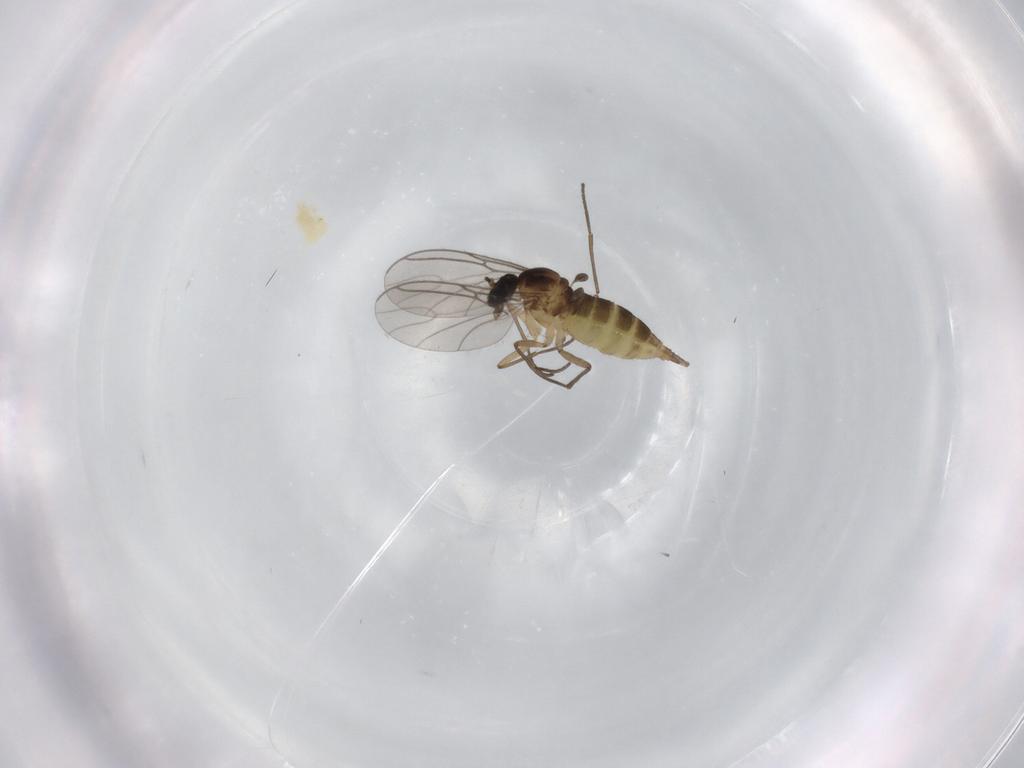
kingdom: Animalia
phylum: Arthropoda
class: Insecta
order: Diptera
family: Sciaridae
